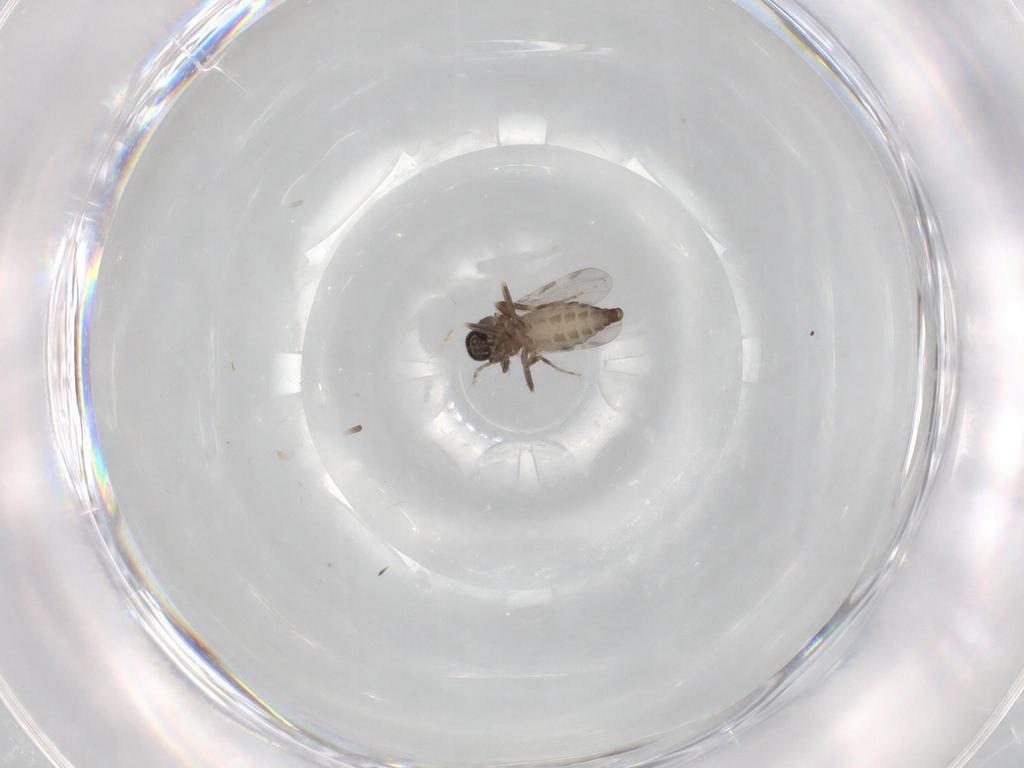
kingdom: Animalia
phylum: Arthropoda
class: Insecta
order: Diptera
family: Ceratopogonidae
